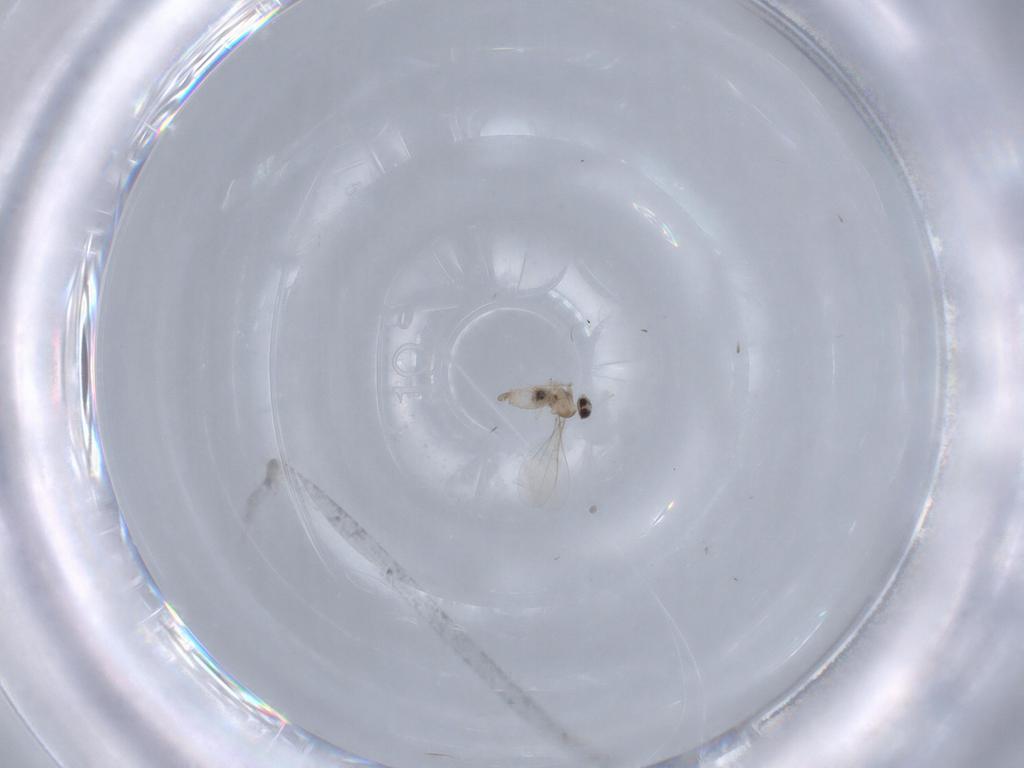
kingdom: Animalia
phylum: Arthropoda
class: Insecta
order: Diptera
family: Cecidomyiidae
